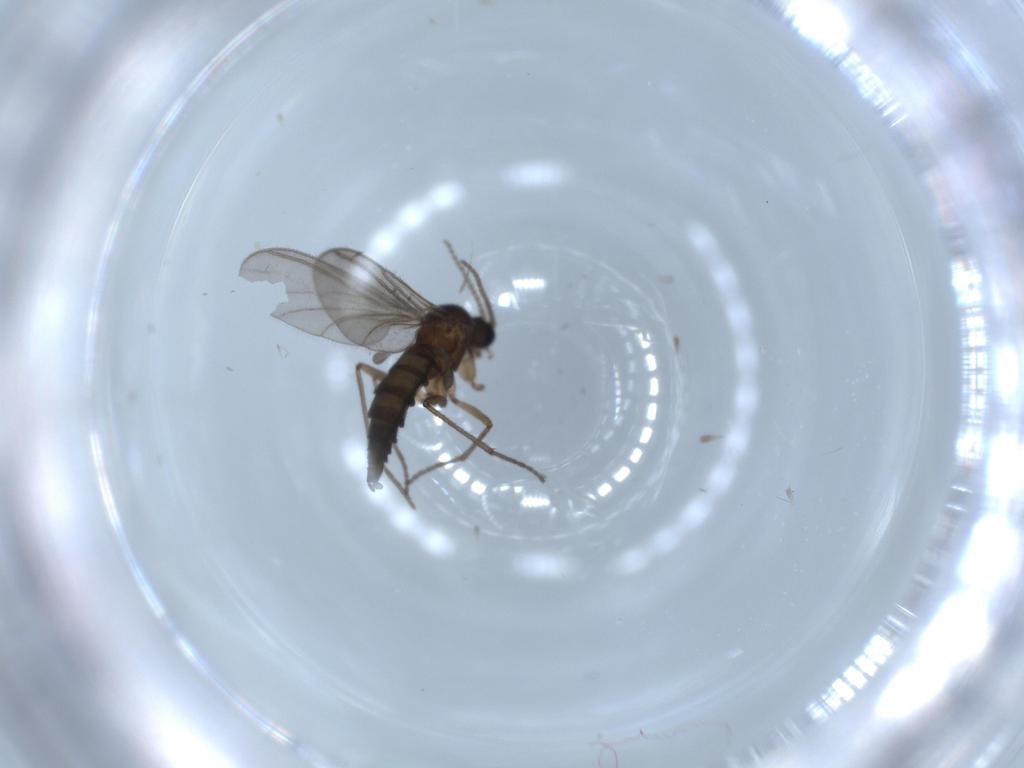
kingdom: Animalia
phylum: Arthropoda
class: Insecta
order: Diptera
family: Sciaridae
